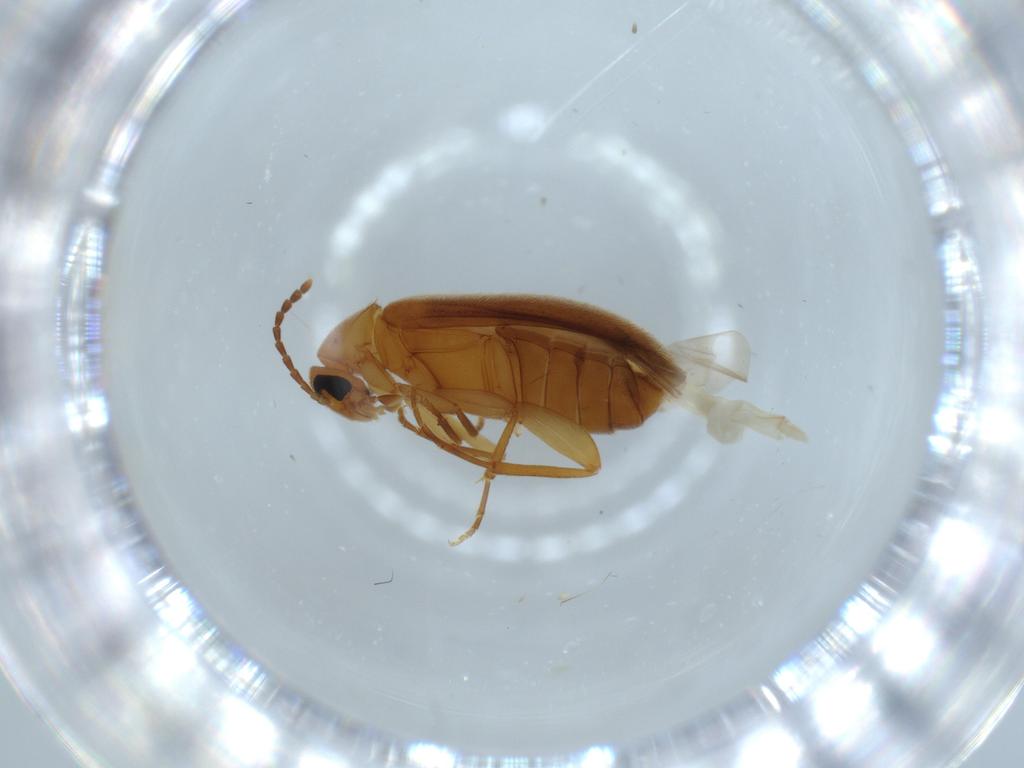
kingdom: Animalia
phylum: Arthropoda
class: Insecta
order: Coleoptera
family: Scraptiidae
